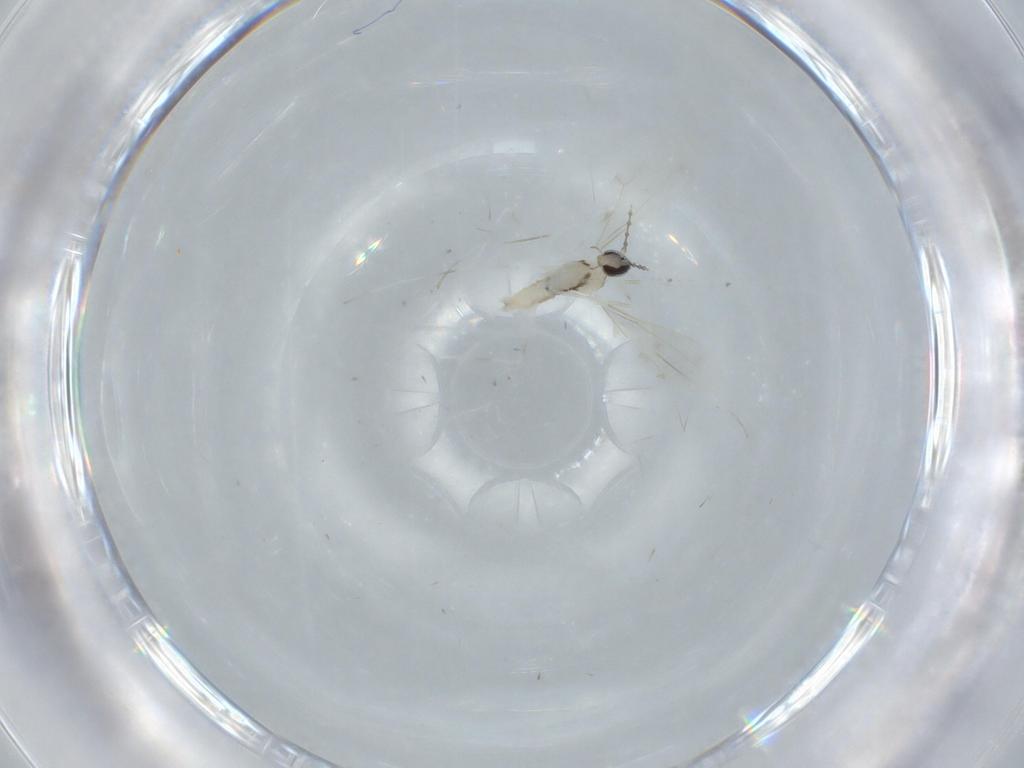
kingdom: Animalia
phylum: Arthropoda
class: Insecta
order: Diptera
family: Cecidomyiidae
